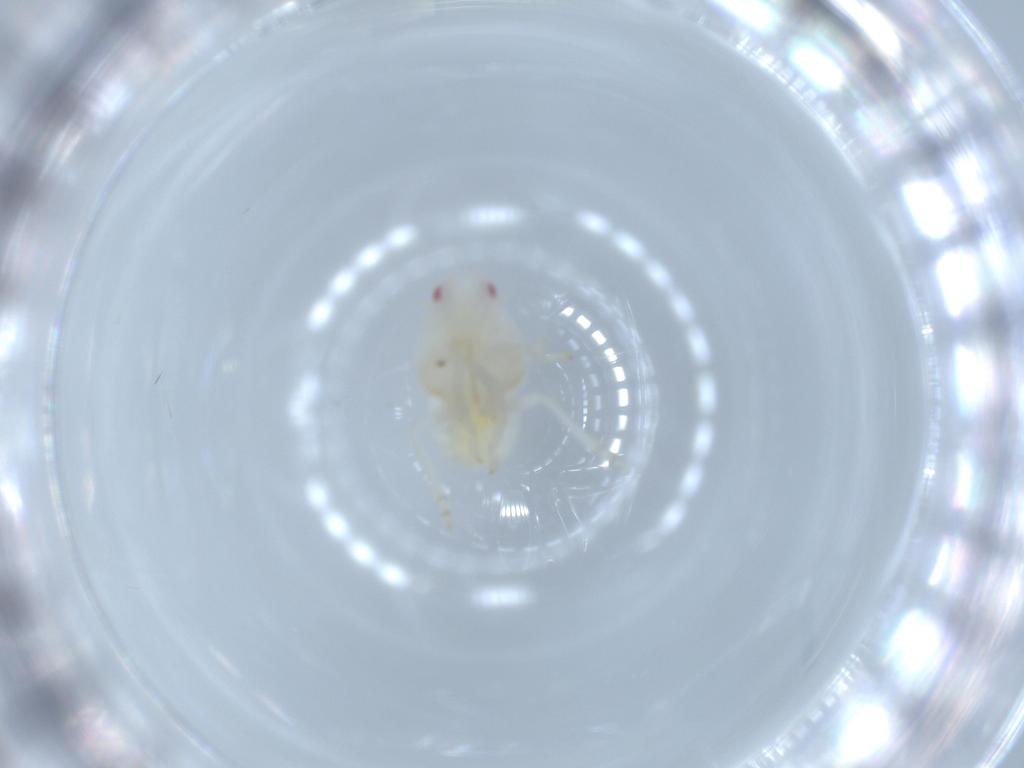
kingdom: Animalia
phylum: Arthropoda
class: Insecta
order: Hemiptera
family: Flatidae
